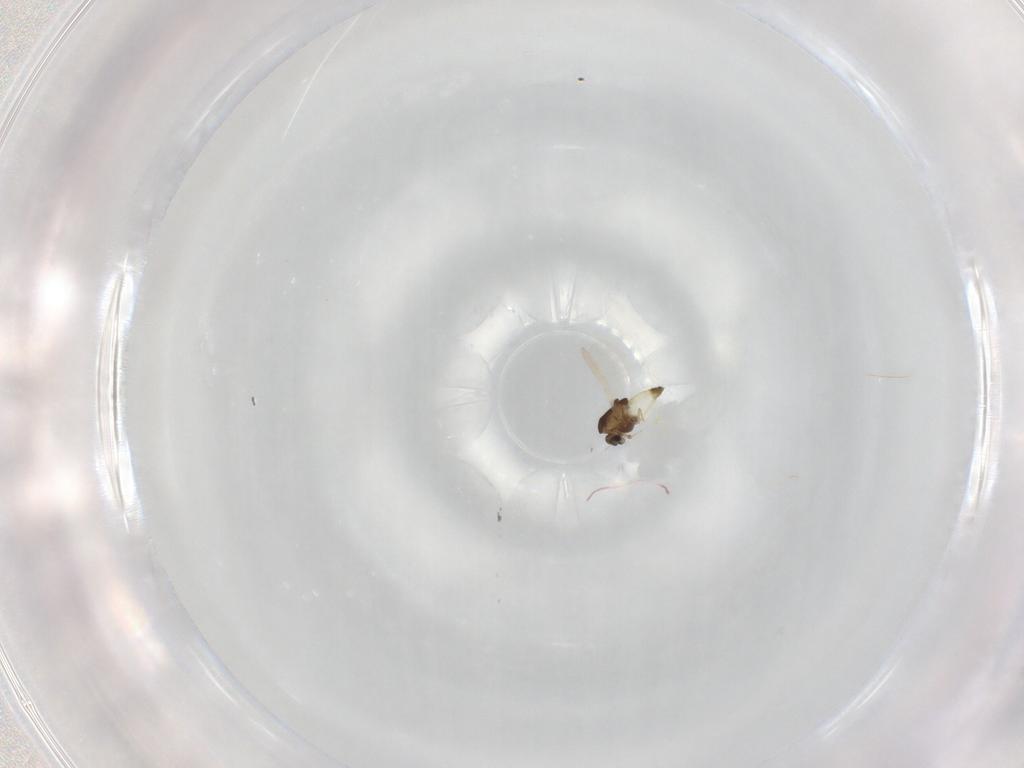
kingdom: Animalia
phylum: Arthropoda
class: Insecta
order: Diptera
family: Chironomidae
